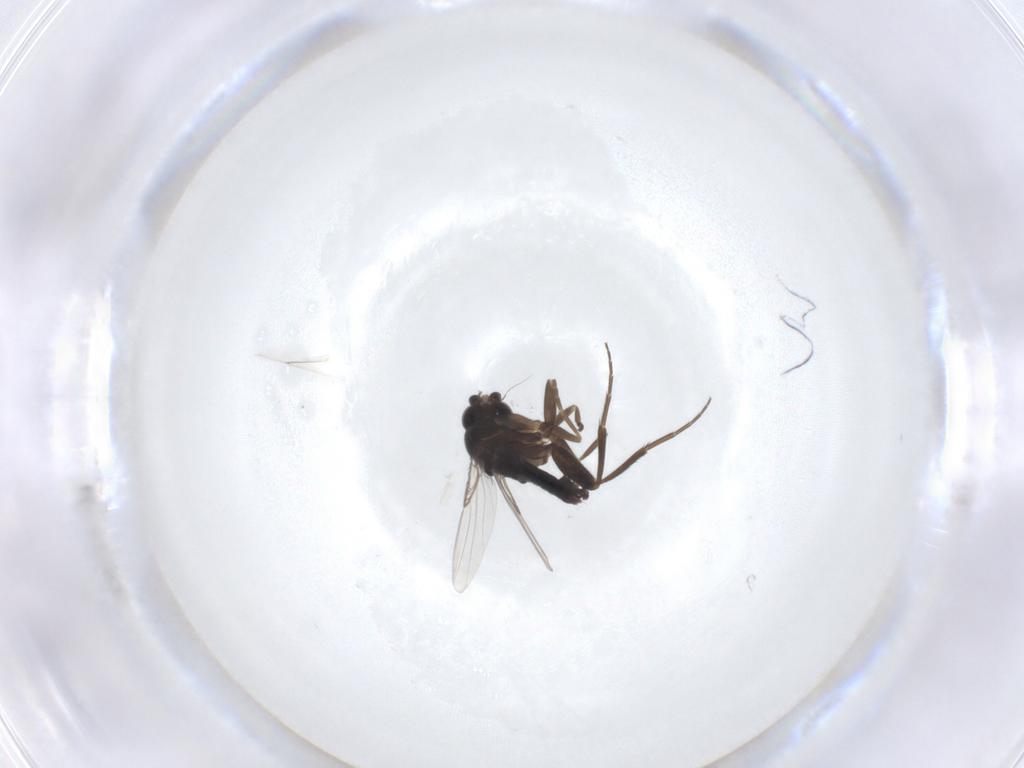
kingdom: Animalia
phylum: Arthropoda
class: Insecta
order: Diptera
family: Phoridae
